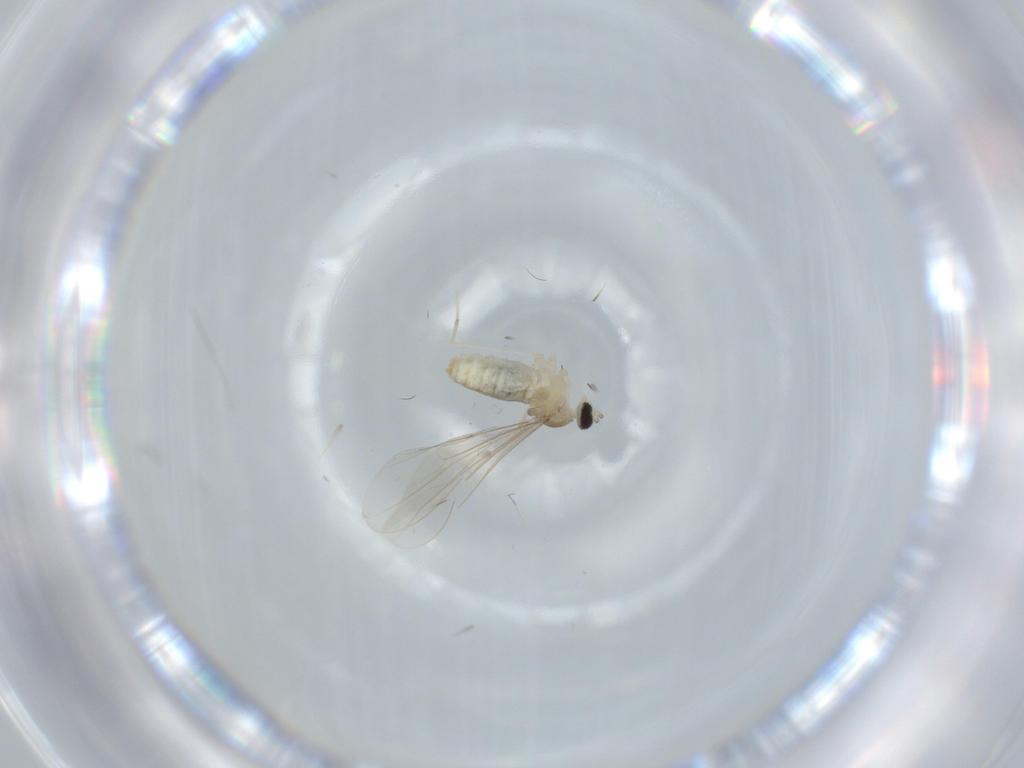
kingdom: Animalia
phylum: Arthropoda
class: Insecta
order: Diptera
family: Cecidomyiidae
